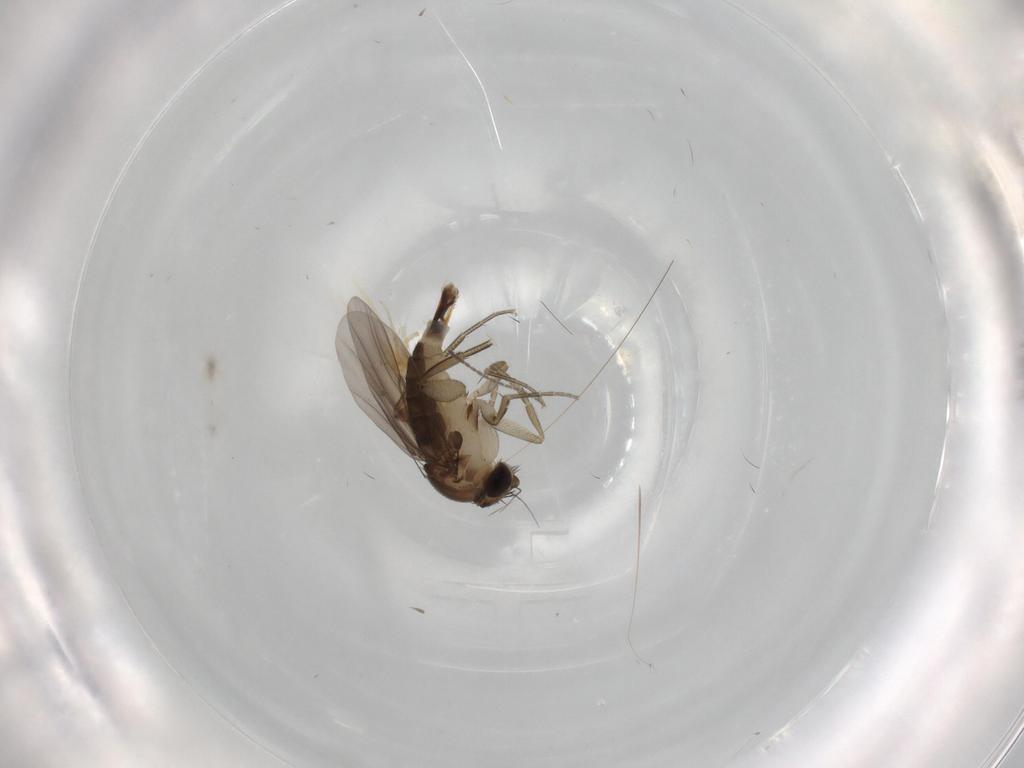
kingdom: Animalia
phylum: Arthropoda
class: Insecta
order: Diptera
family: Phoridae
